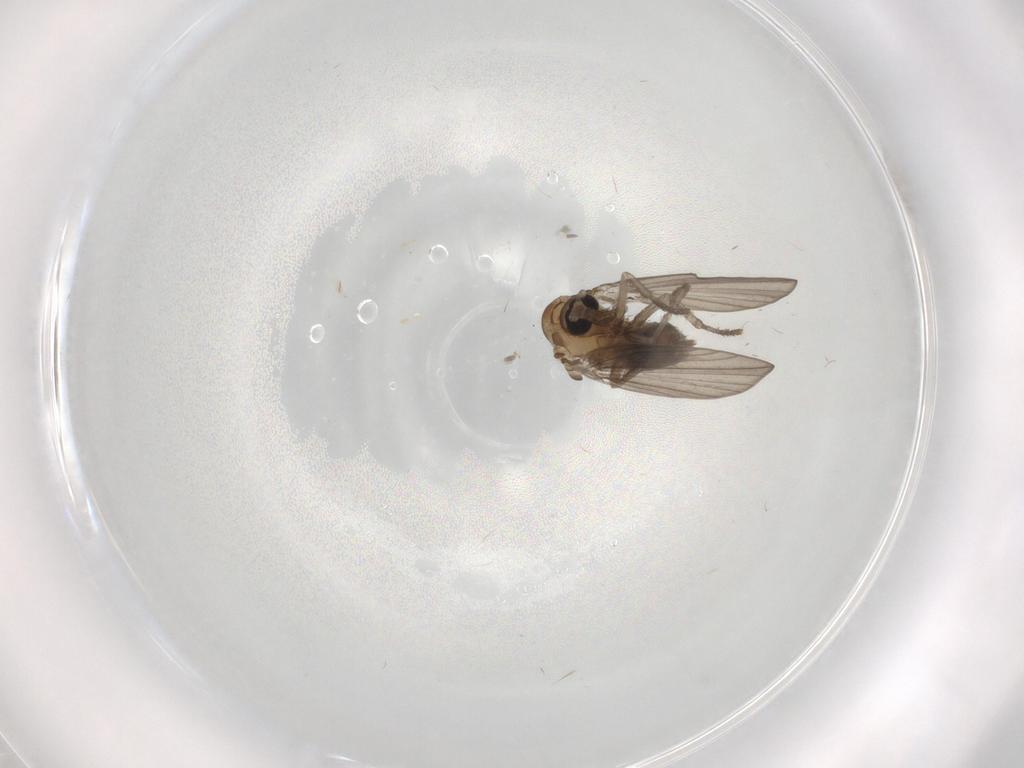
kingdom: Animalia
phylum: Arthropoda
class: Insecta
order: Diptera
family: Psychodidae
